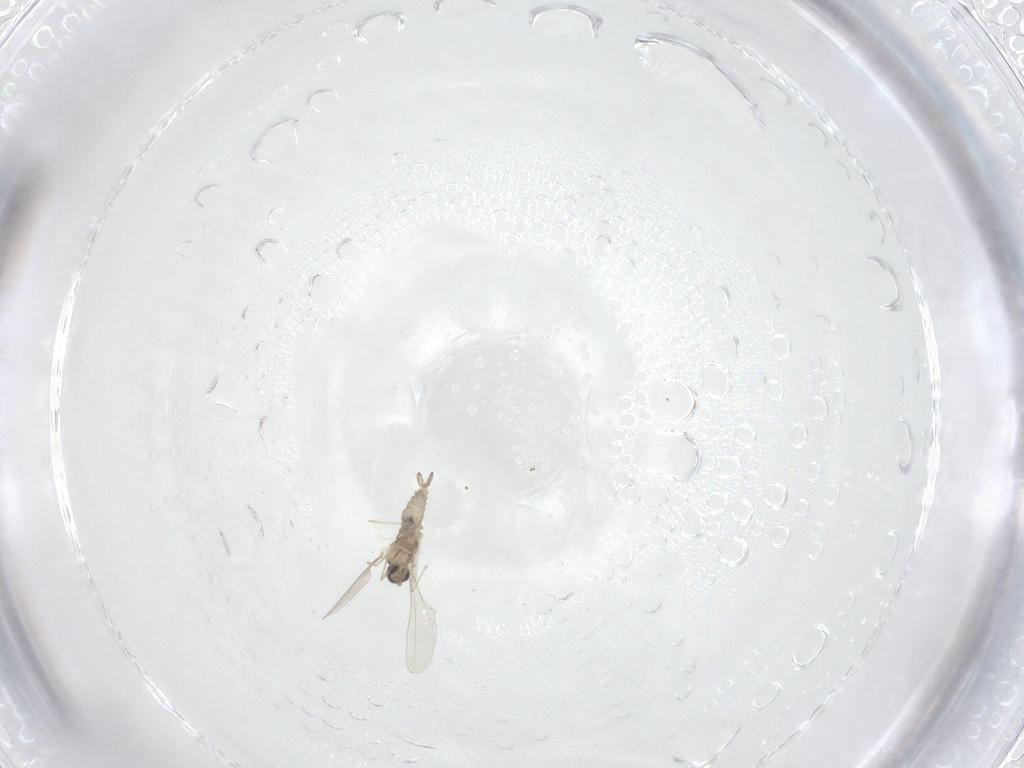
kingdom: Animalia
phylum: Arthropoda
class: Insecta
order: Diptera
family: Cecidomyiidae
